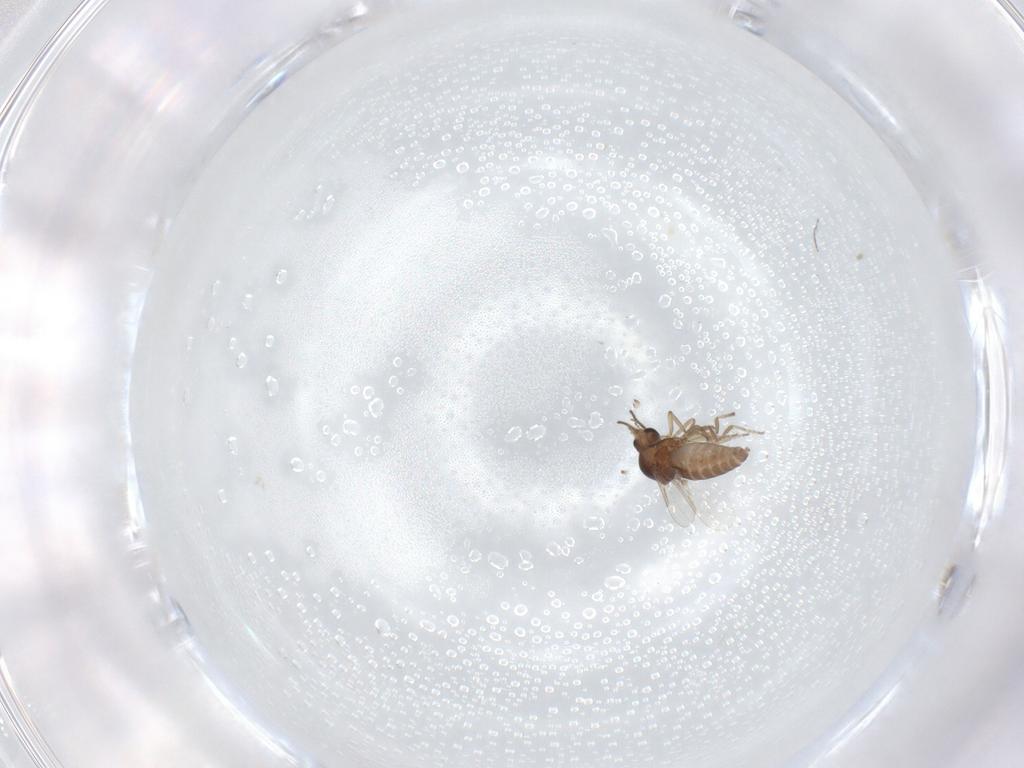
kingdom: Animalia
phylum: Arthropoda
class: Insecta
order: Diptera
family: Ceratopogonidae
